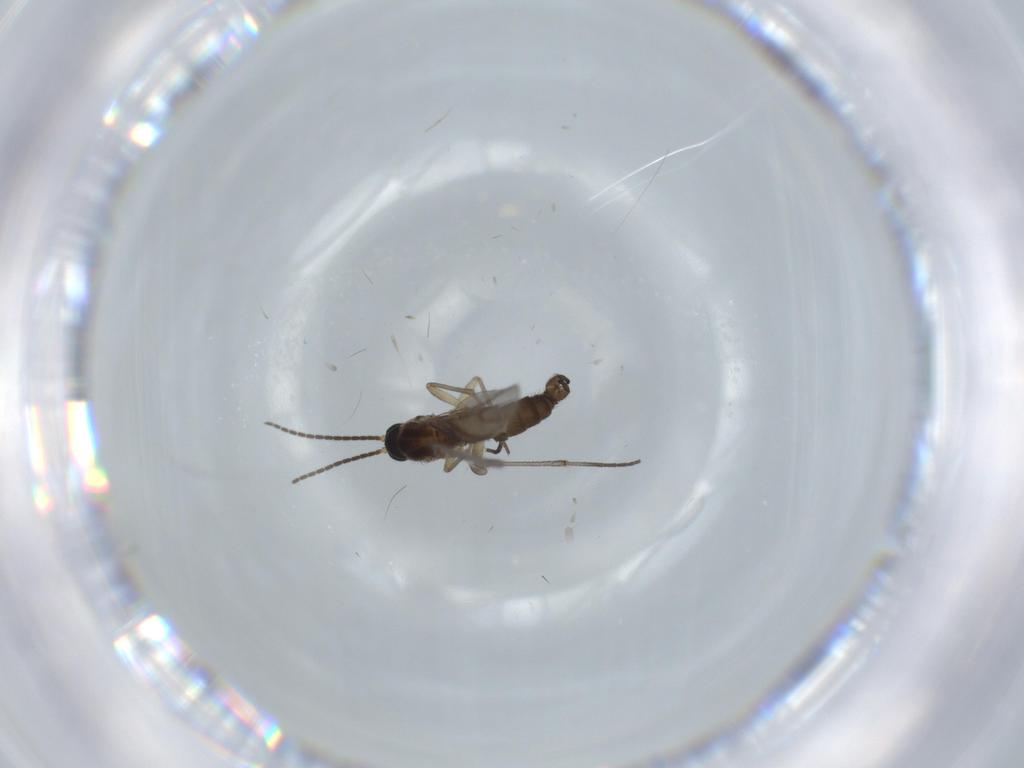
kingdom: Animalia
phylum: Arthropoda
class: Insecta
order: Diptera
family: Sciaridae
